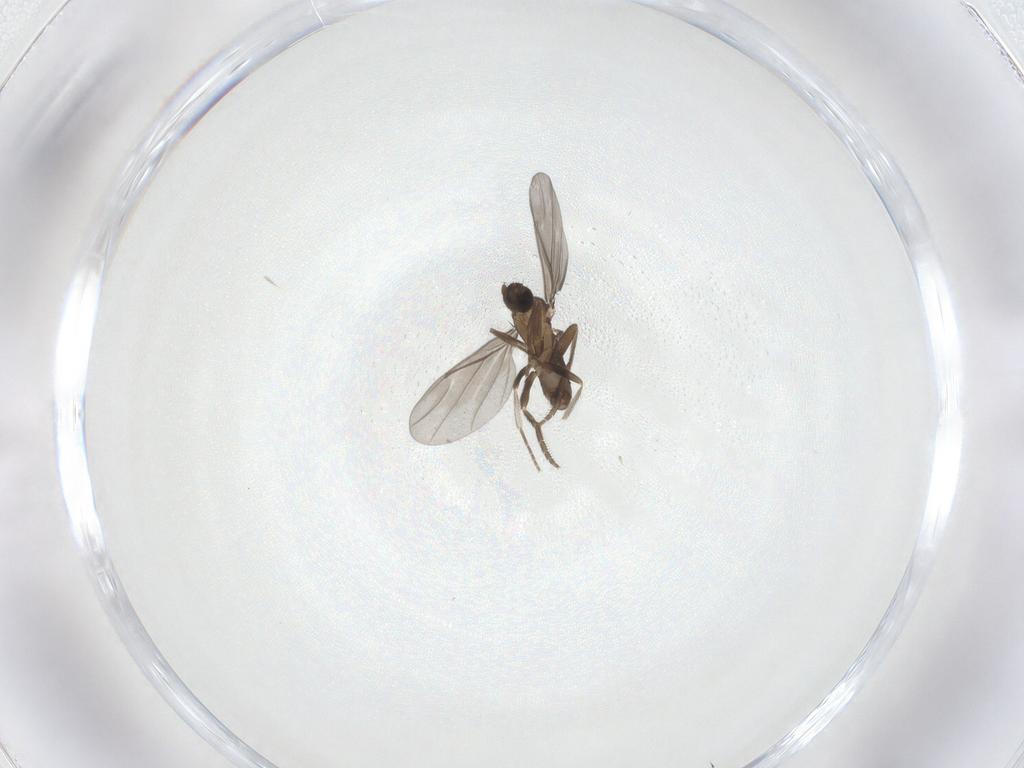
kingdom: Animalia
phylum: Arthropoda
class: Insecta
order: Diptera
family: Phoridae
